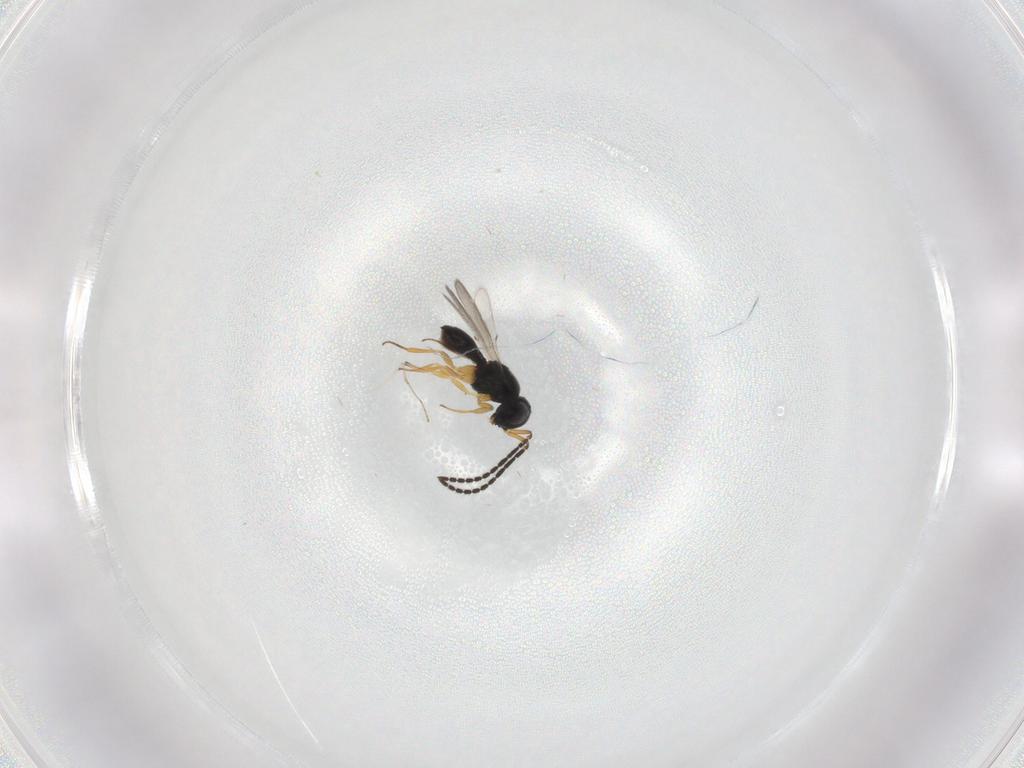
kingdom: Animalia
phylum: Arthropoda
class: Insecta
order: Hymenoptera
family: Scelionidae
